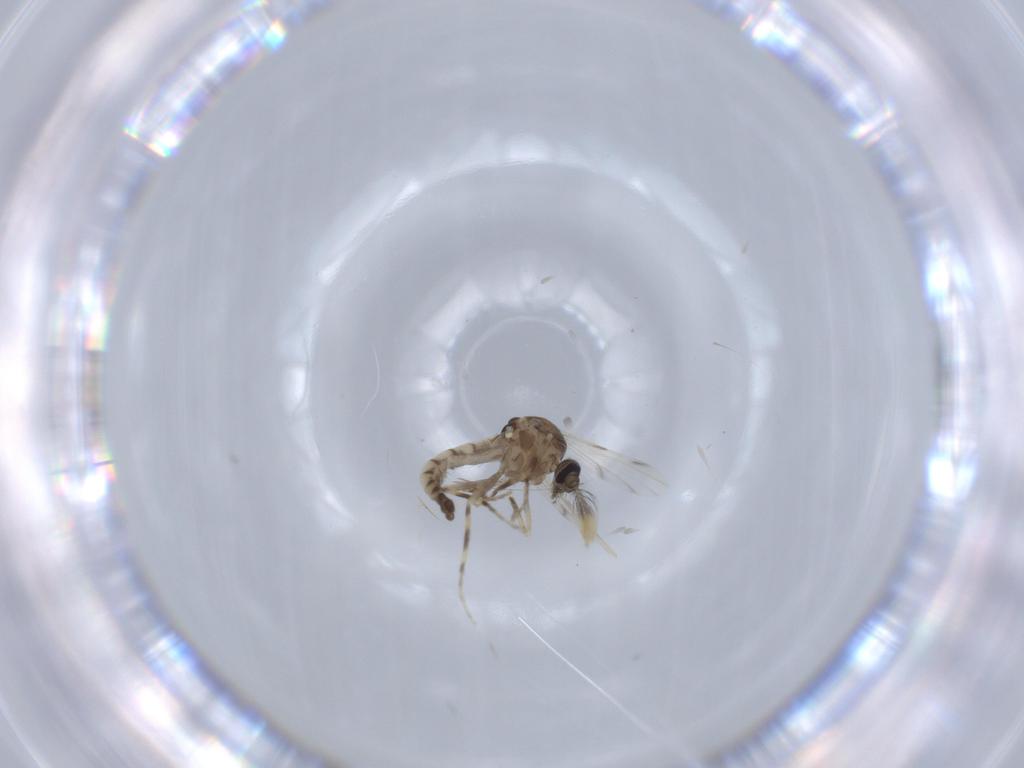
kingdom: Animalia
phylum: Arthropoda
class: Insecta
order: Diptera
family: Ceratopogonidae
